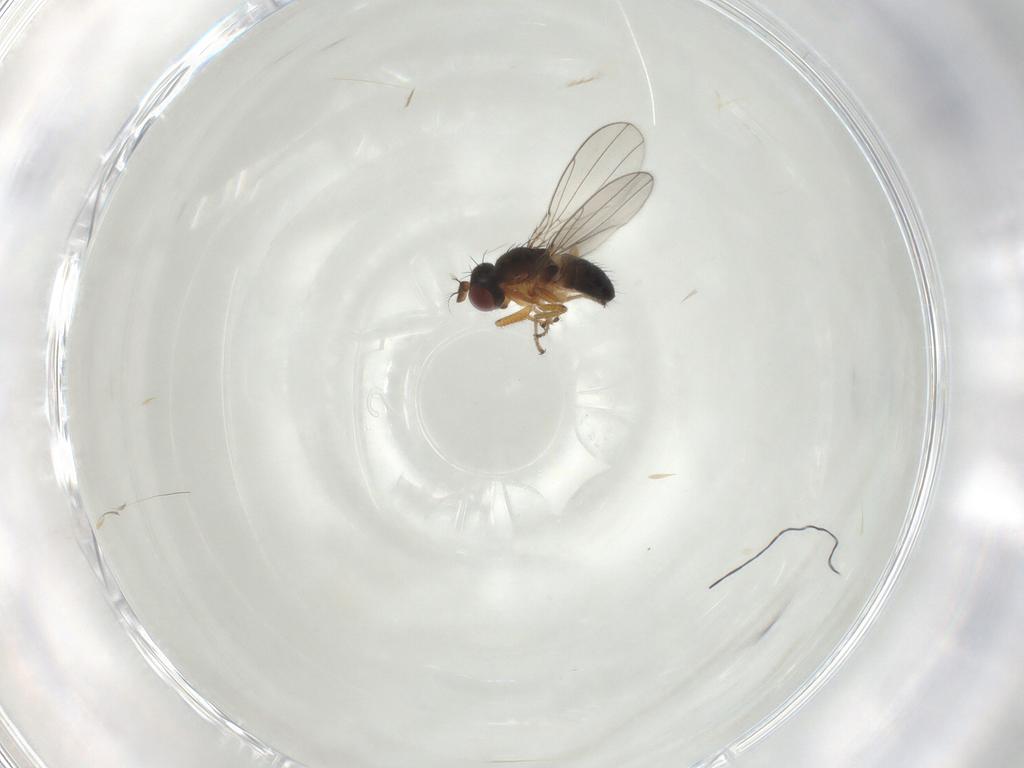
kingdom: Animalia
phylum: Arthropoda
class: Insecta
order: Diptera
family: Ephydridae
